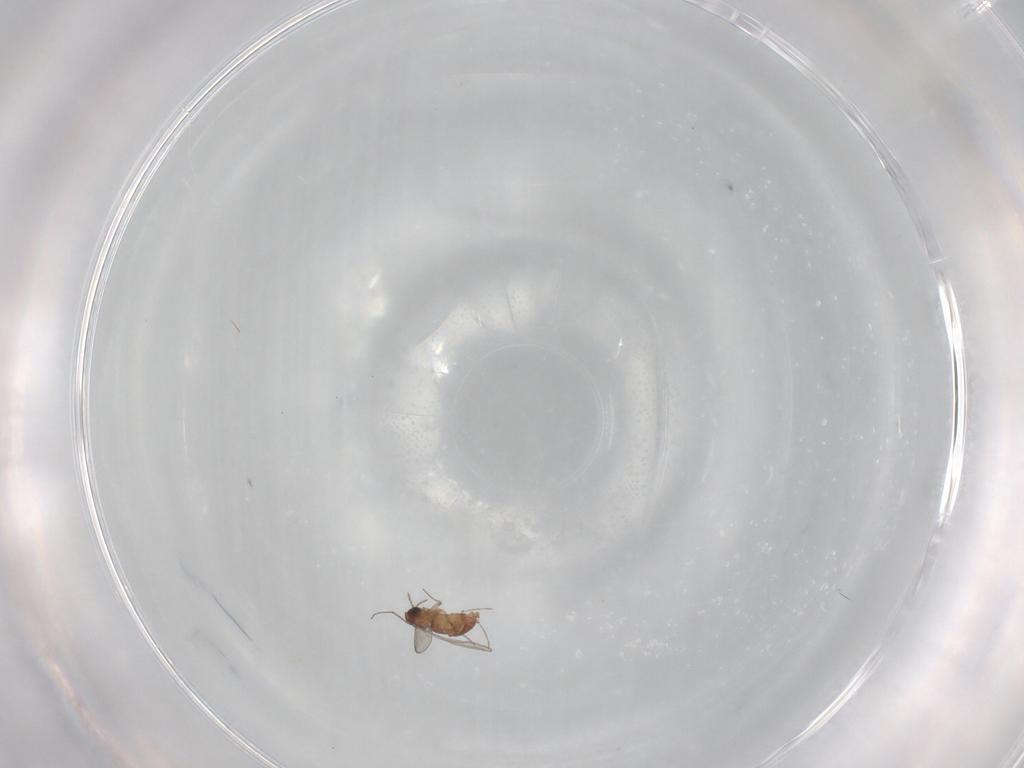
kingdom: Animalia
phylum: Arthropoda
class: Insecta
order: Diptera
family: Chironomidae
